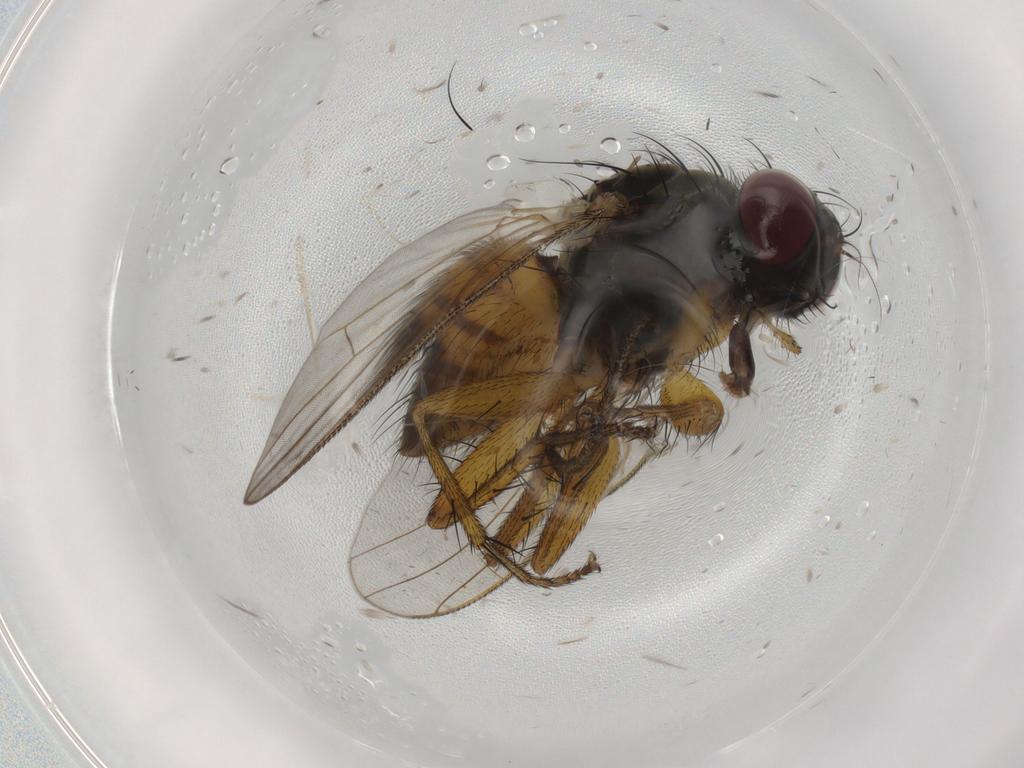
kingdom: Animalia
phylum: Arthropoda
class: Insecta
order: Diptera
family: Muscidae
